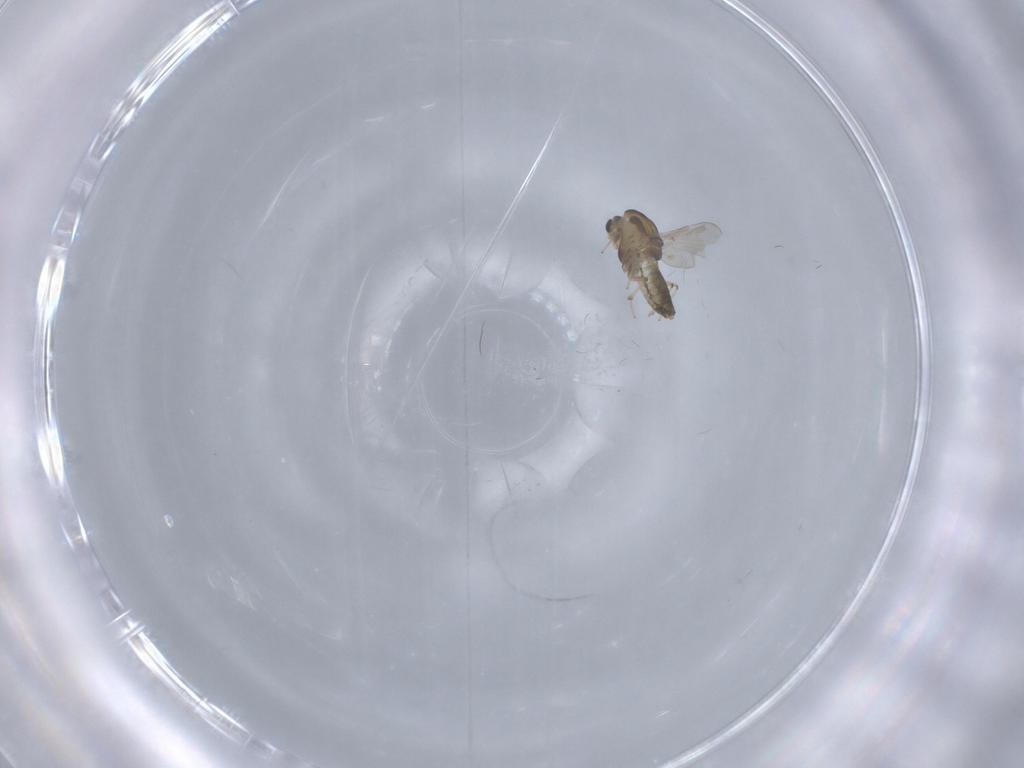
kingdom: Animalia
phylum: Arthropoda
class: Insecta
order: Diptera
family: Chironomidae
